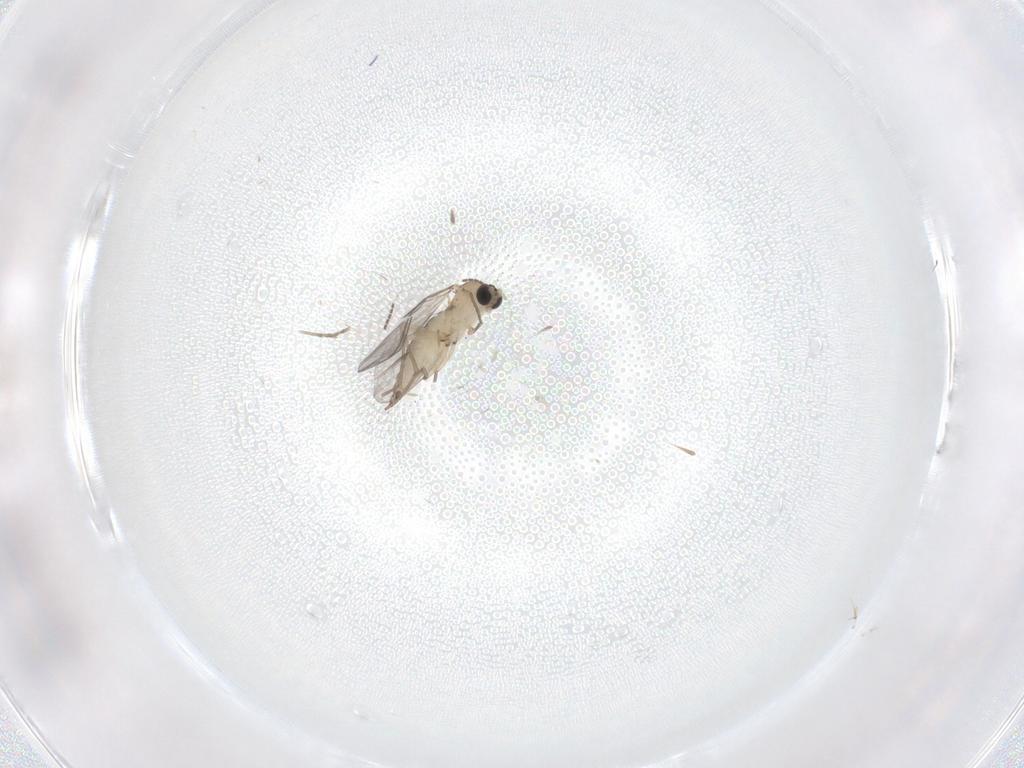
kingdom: Animalia
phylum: Arthropoda
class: Insecta
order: Diptera
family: Sciaridae
